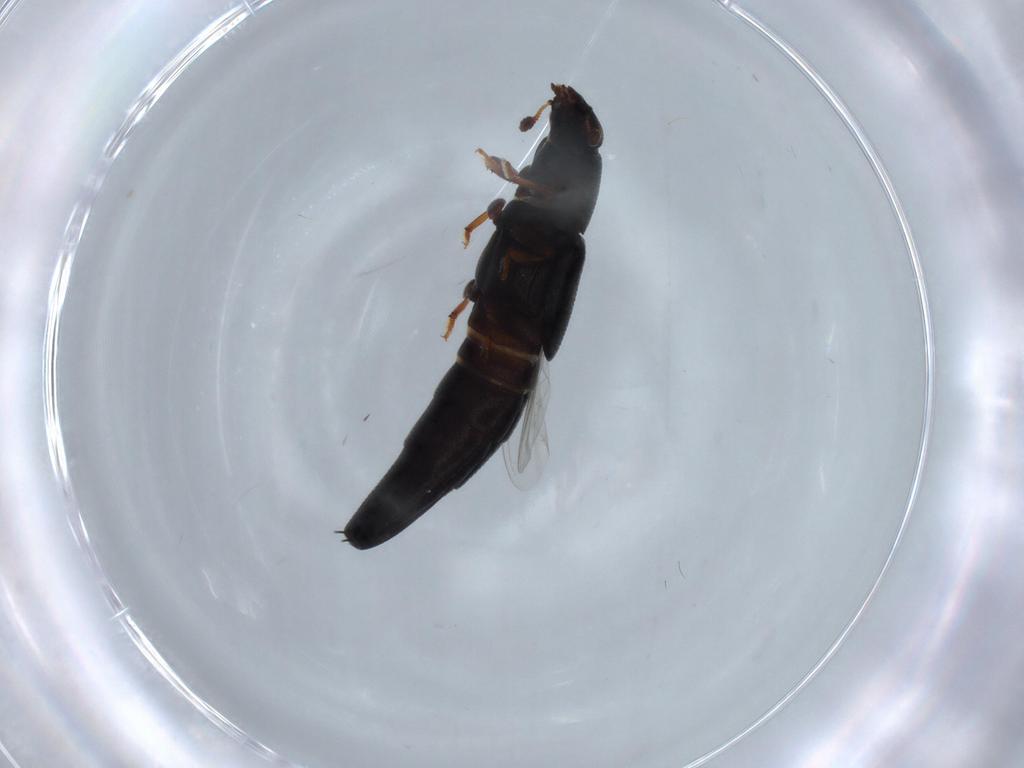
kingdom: Animalia
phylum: Arthropoda
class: Insecta
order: Coleoptera
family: Nitidulidae
